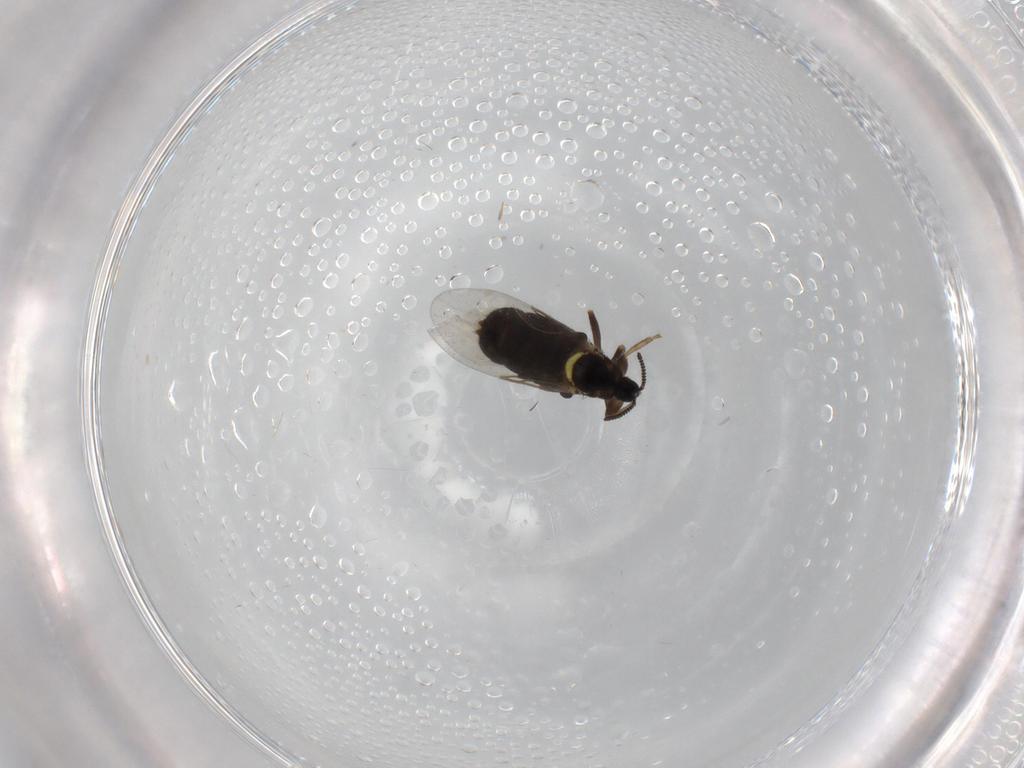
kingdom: Animalia
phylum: Arthropoda
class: Insecta
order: Diptera
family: Scatopsidae
